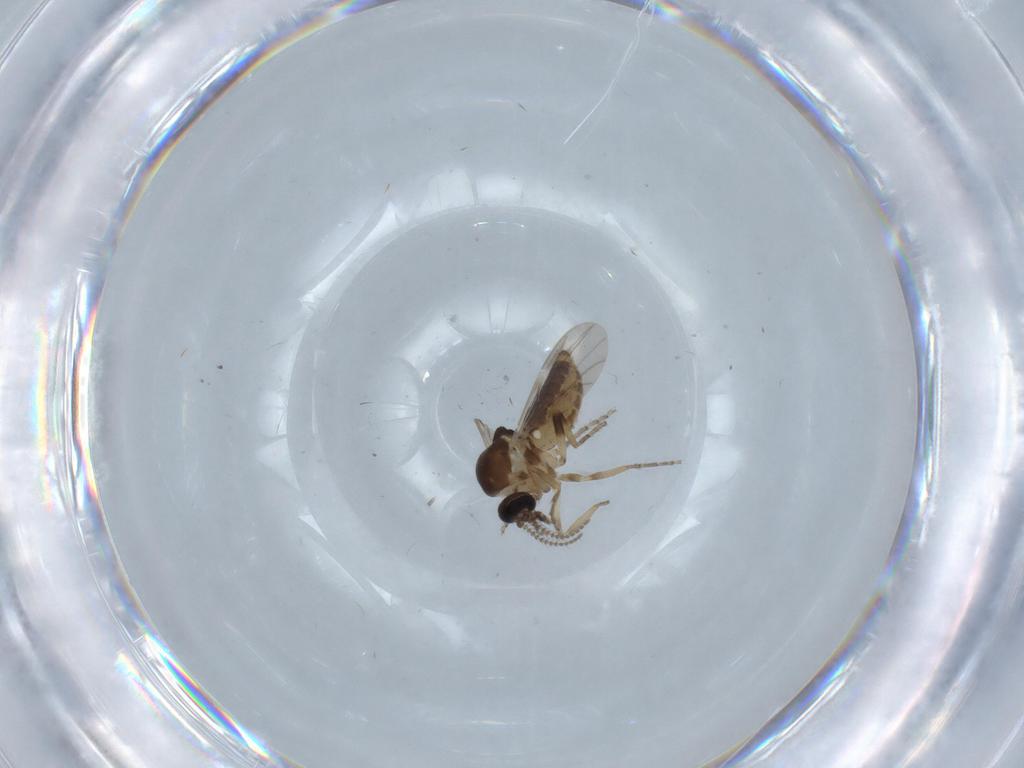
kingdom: Animalia
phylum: Arthropoda
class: Insecta
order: Diptera
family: Ceratopogonidae
